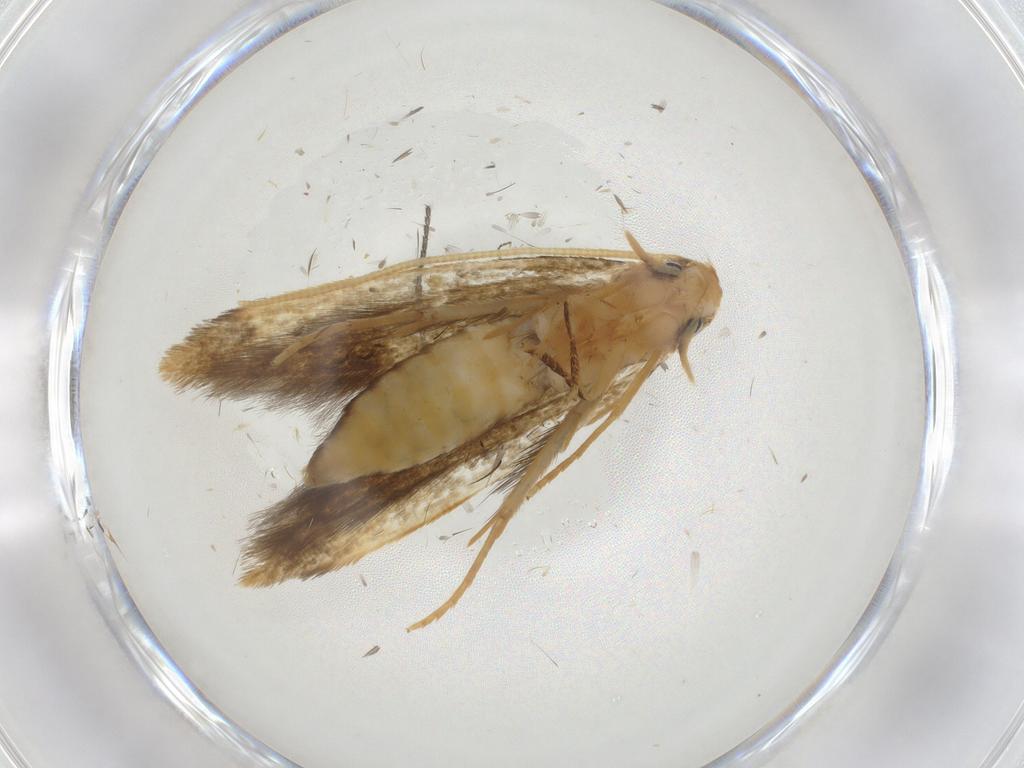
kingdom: Animalia
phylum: Arthropoda
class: Insecta
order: Lepidoptera
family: Tineidae
